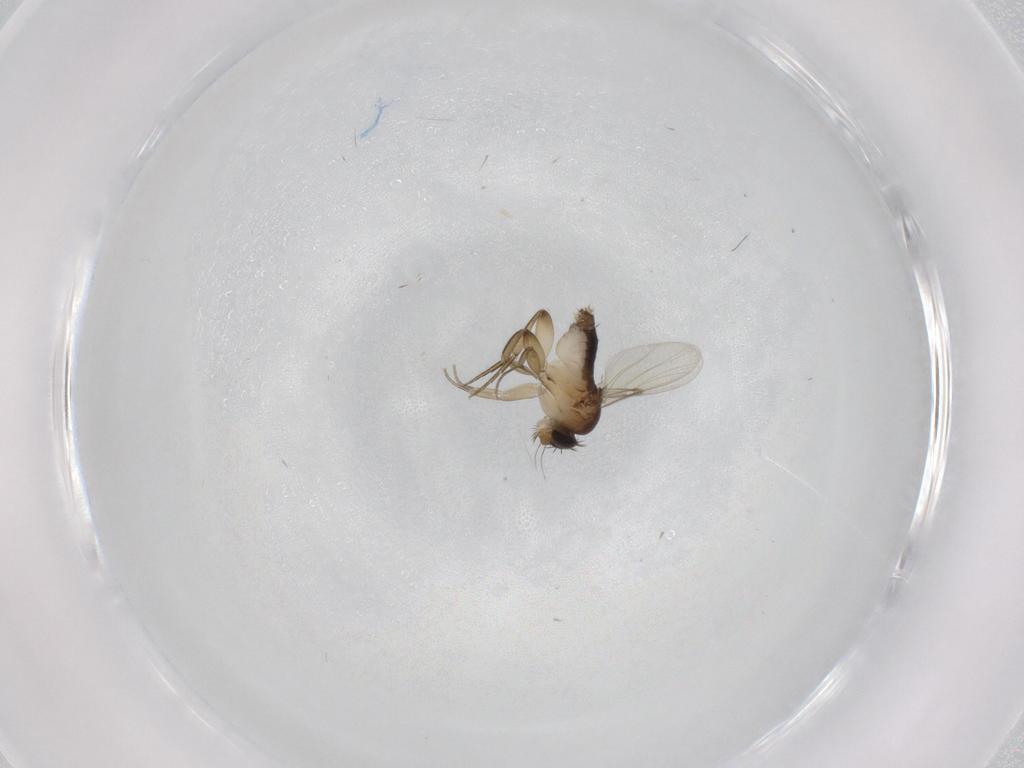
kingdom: Animalia
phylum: Arthropoda
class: Insecta
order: Diptera
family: Phoridae
